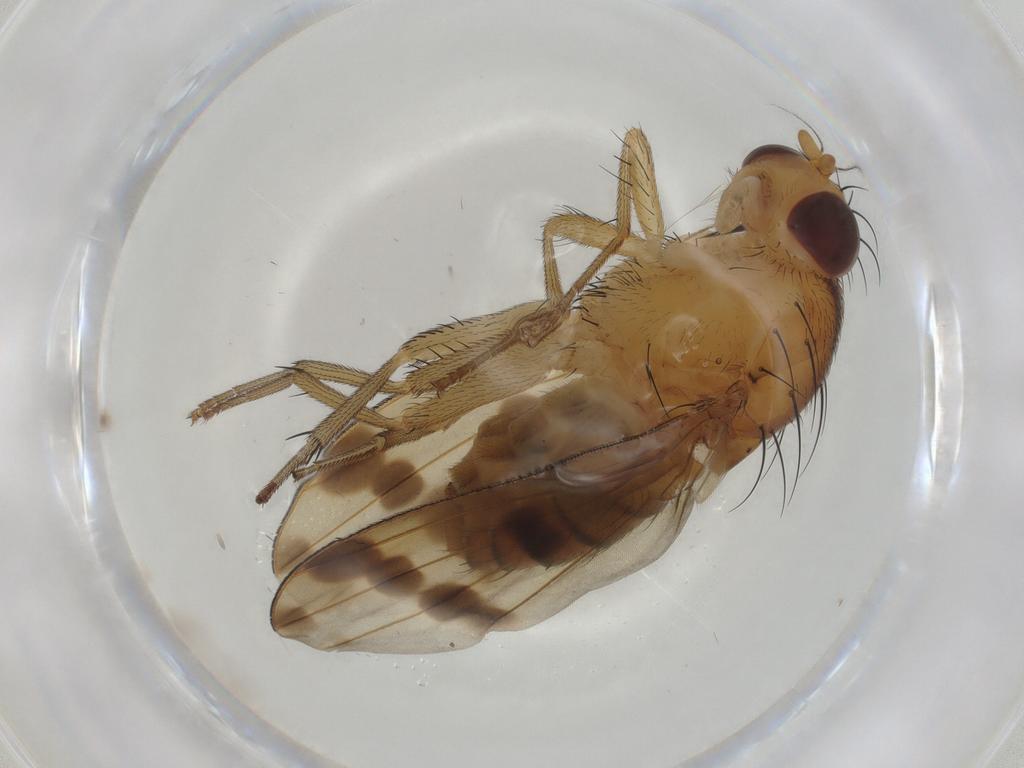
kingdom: Animalia
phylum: Arthropoda
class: Insecta
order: Diptera
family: Ceratopogonidae
